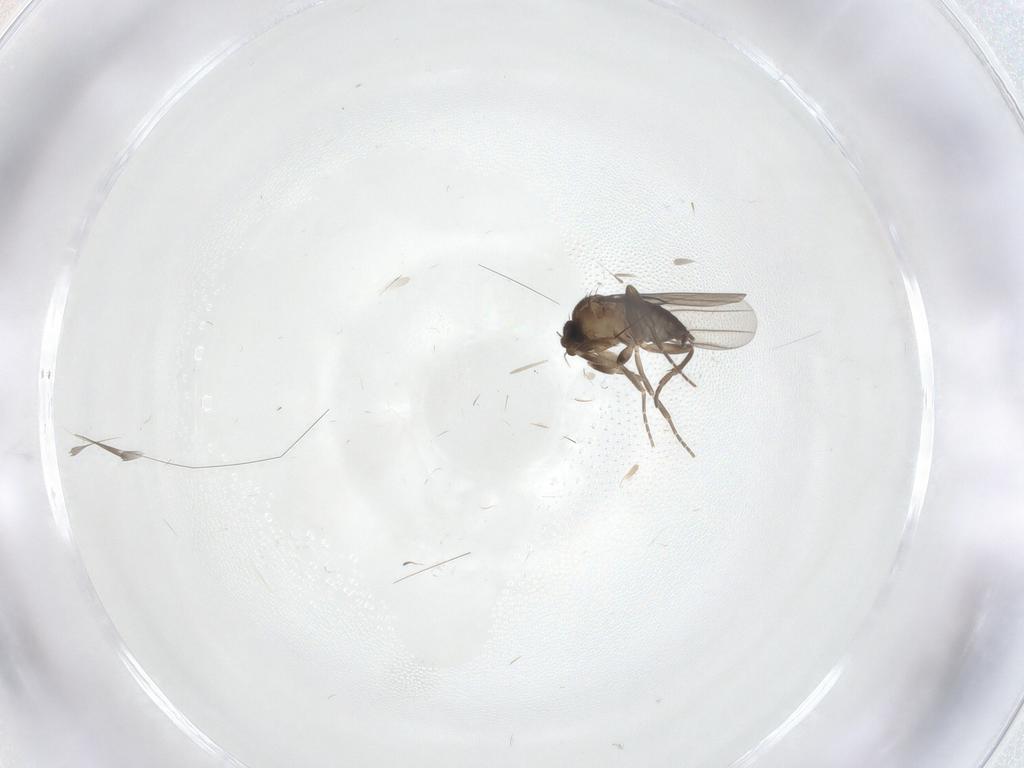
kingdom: Animalia
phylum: Arthropoda
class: Insecta
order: Diptera
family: Phoridae
